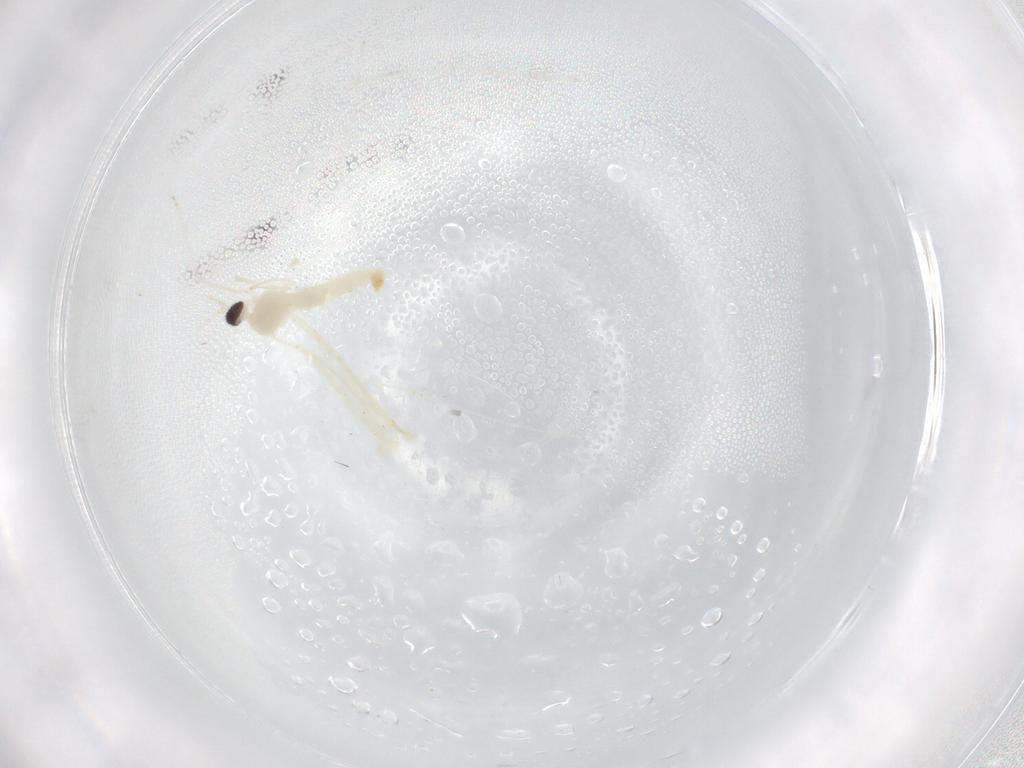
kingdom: Animalia
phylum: Arthropoda
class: Insecta
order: Diptera
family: Cecidomyiidae
